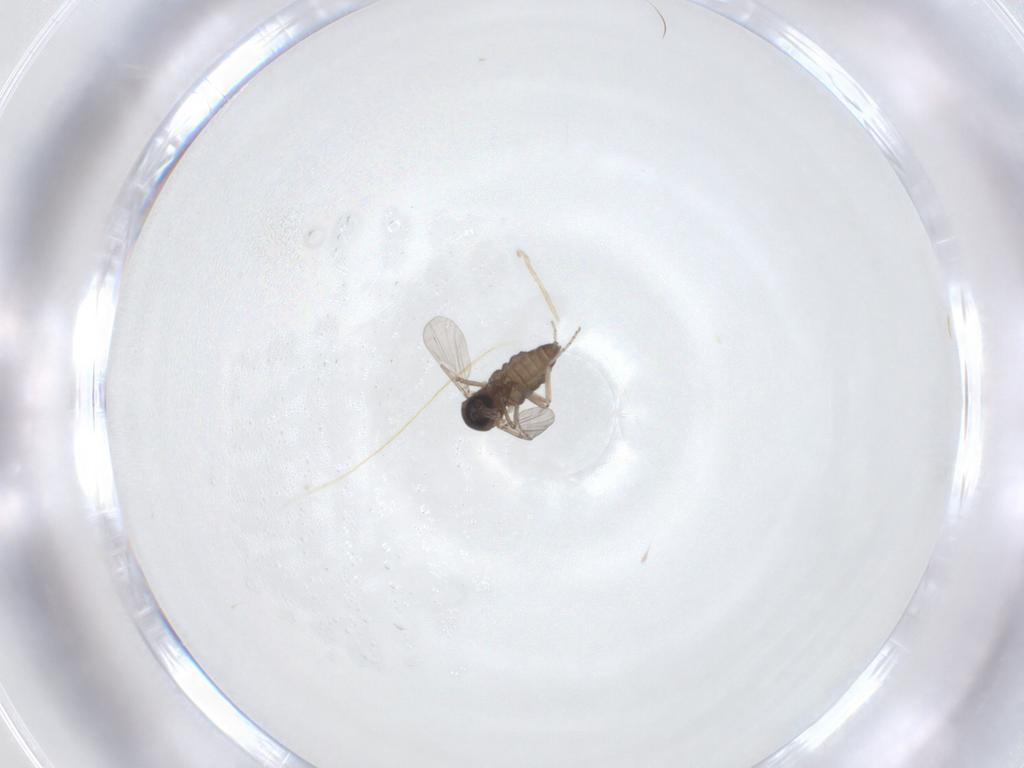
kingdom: Animalia
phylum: Arthropoda
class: Insecta
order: Diptera
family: Ceratopogonidae
